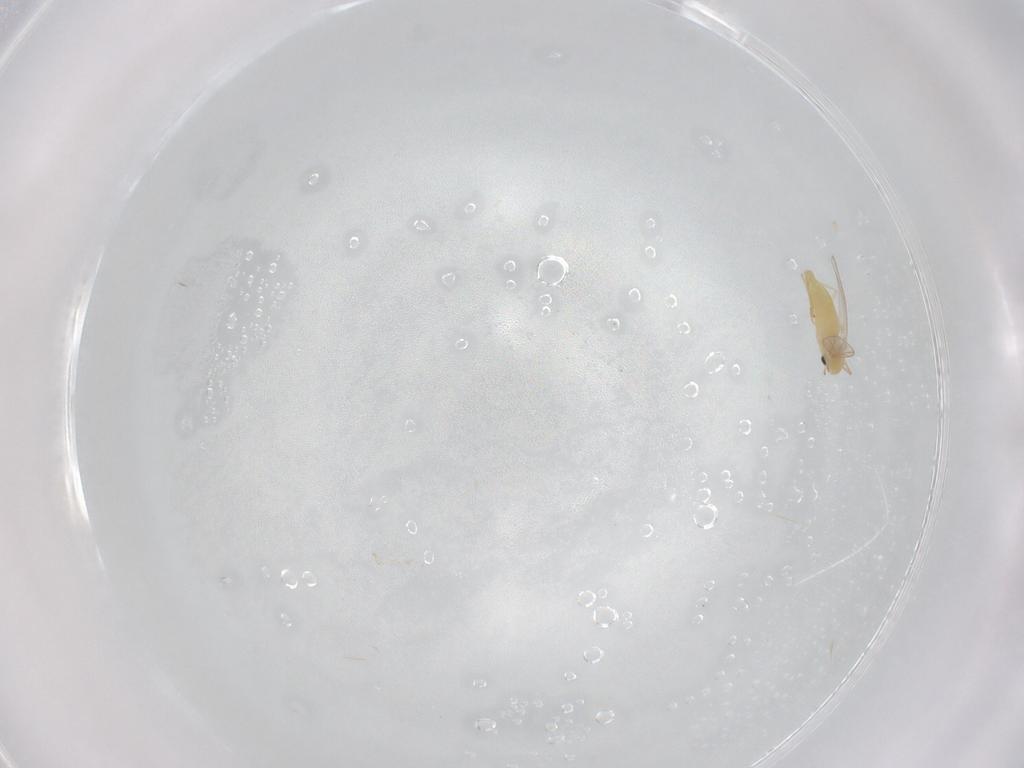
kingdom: Animalia
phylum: Arthropoda
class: Insecta
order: Diptera
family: Chironomidae
